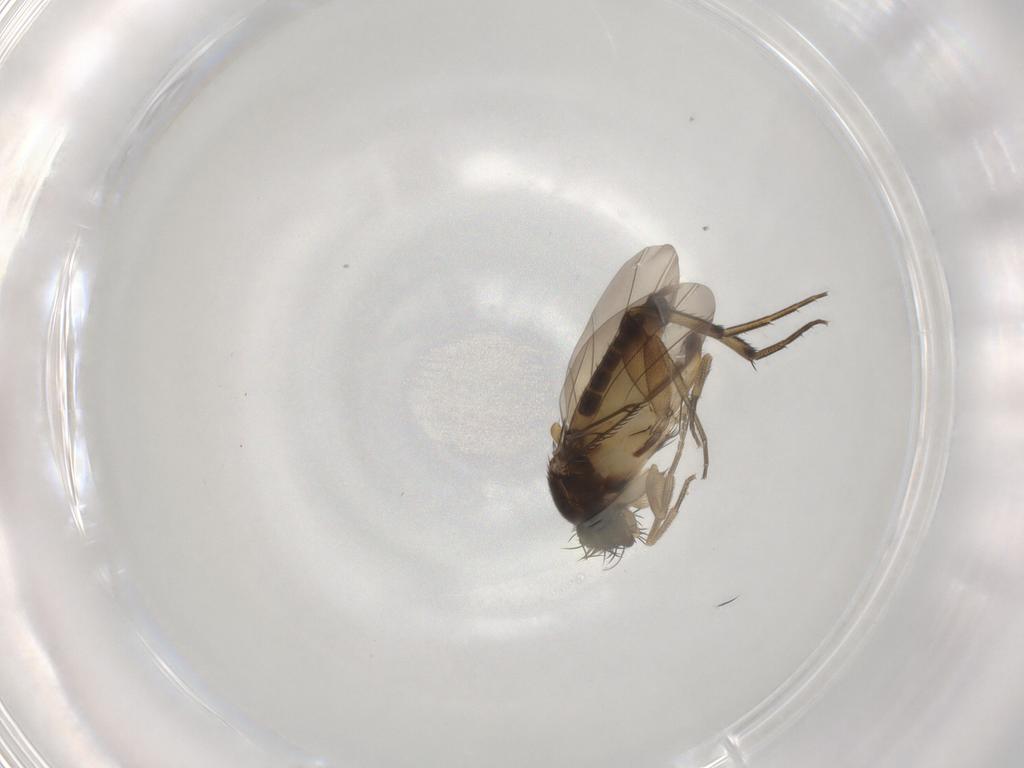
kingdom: Animalia
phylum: Arthropoda
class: Insecta
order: Diptera
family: Phoridae
